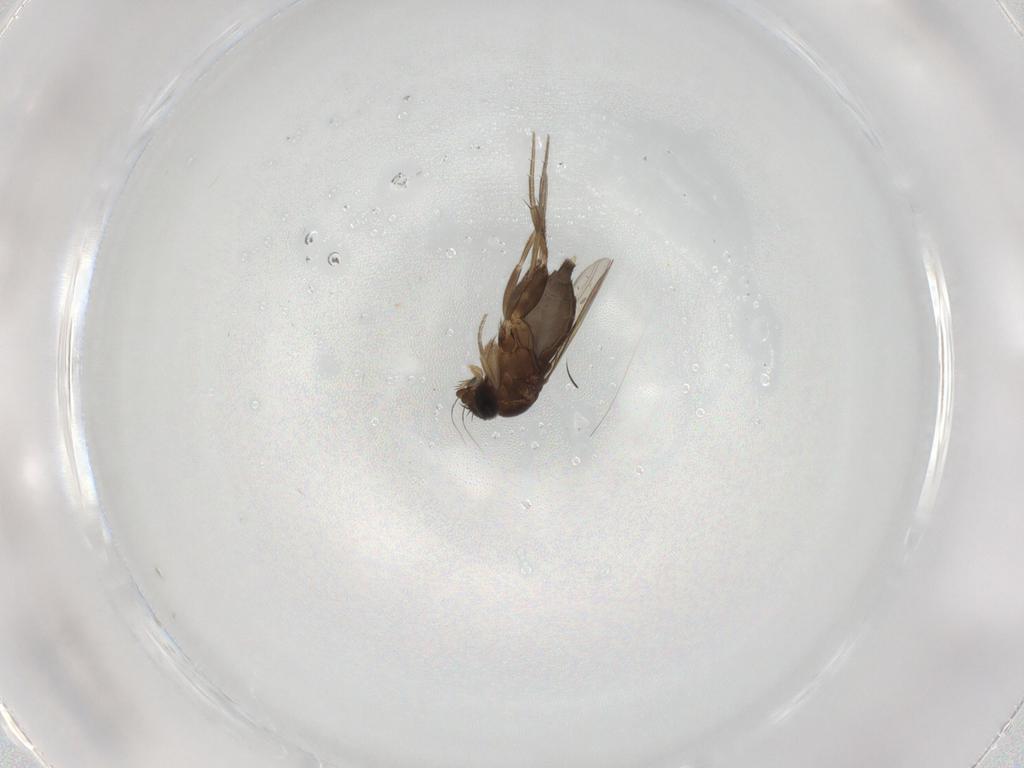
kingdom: Animalia
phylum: Arthropoda
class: Insecta
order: Diptera
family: Phoridae
